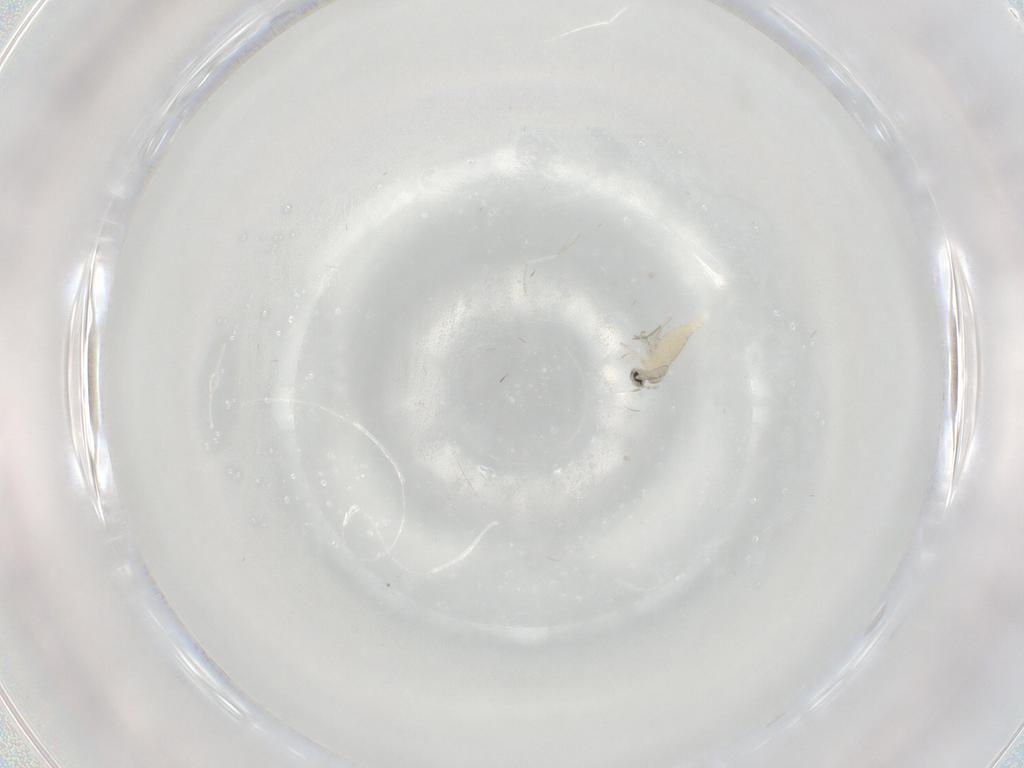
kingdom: Animalia
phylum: Arthropoda
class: Insecta
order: Diptera
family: Cecidomyiidae
